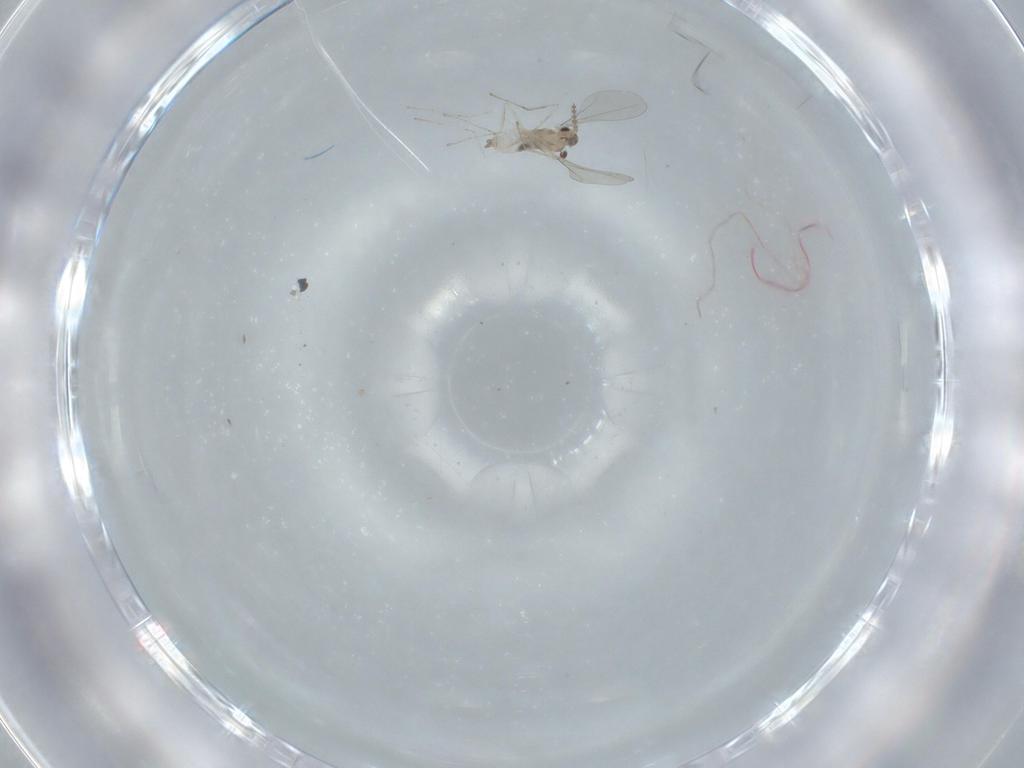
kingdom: Animalia
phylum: Arthropoda
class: Insecta
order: Diptera
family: Cecidomyiidae
